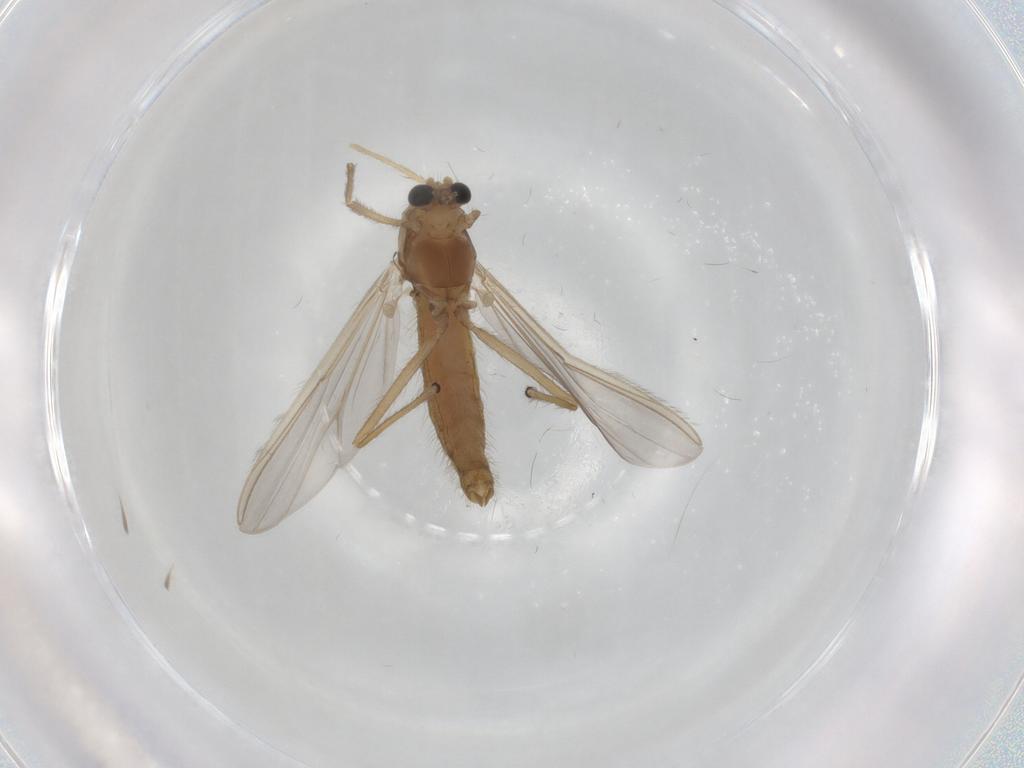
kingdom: Animalia
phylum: Arthropoda
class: Insecta
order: Diptera
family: Chironomidae
